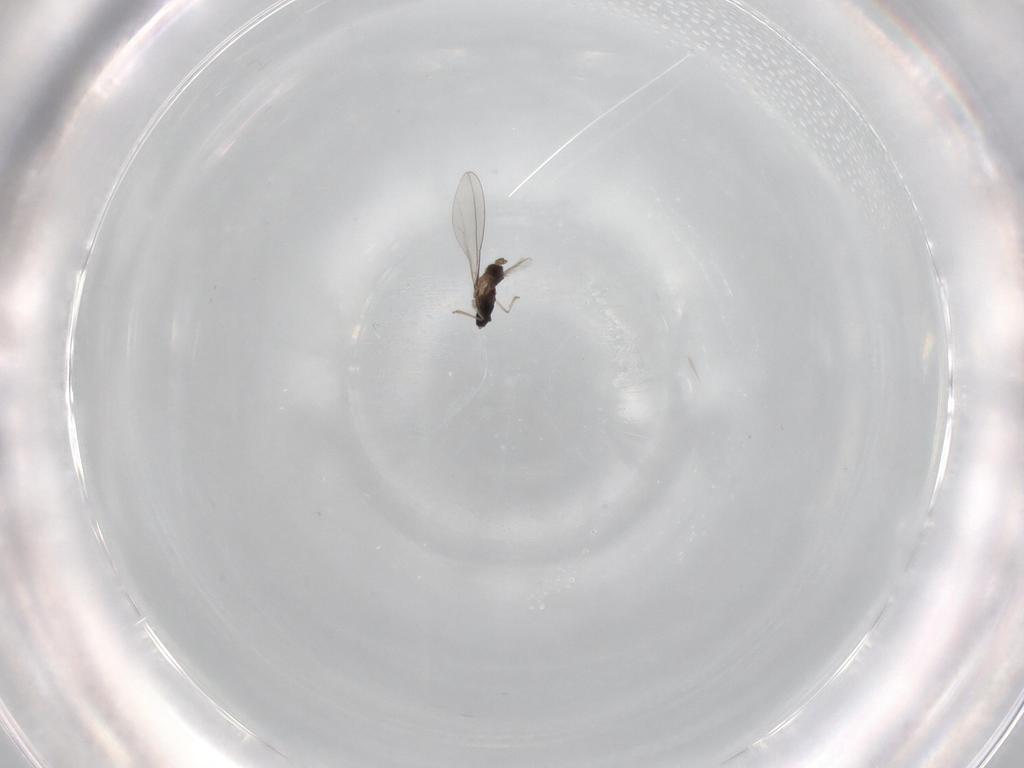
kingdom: Animalia
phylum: Arthropoda
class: Insecta
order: Diptera
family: Cecidomyiidae
